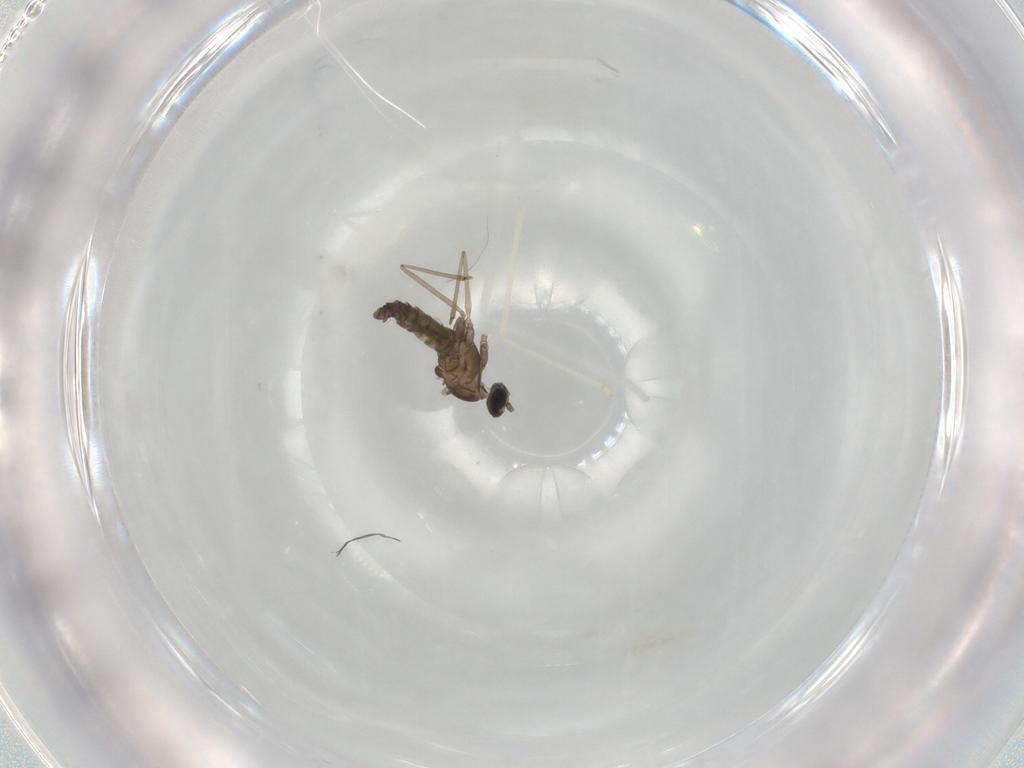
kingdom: Animalia
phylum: Arthropoda
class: Insecta
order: Diptera
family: Cecidomyiidae
